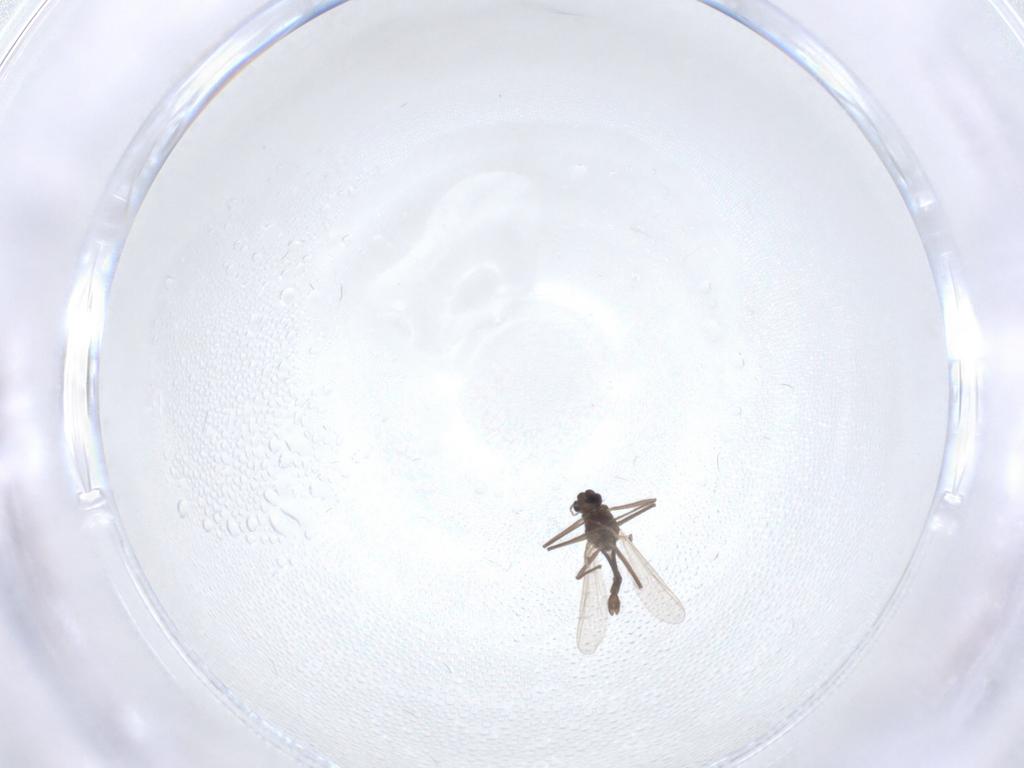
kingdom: Animalia
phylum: Arthropoda
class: Insecta
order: Diptera
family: Chironomidae
